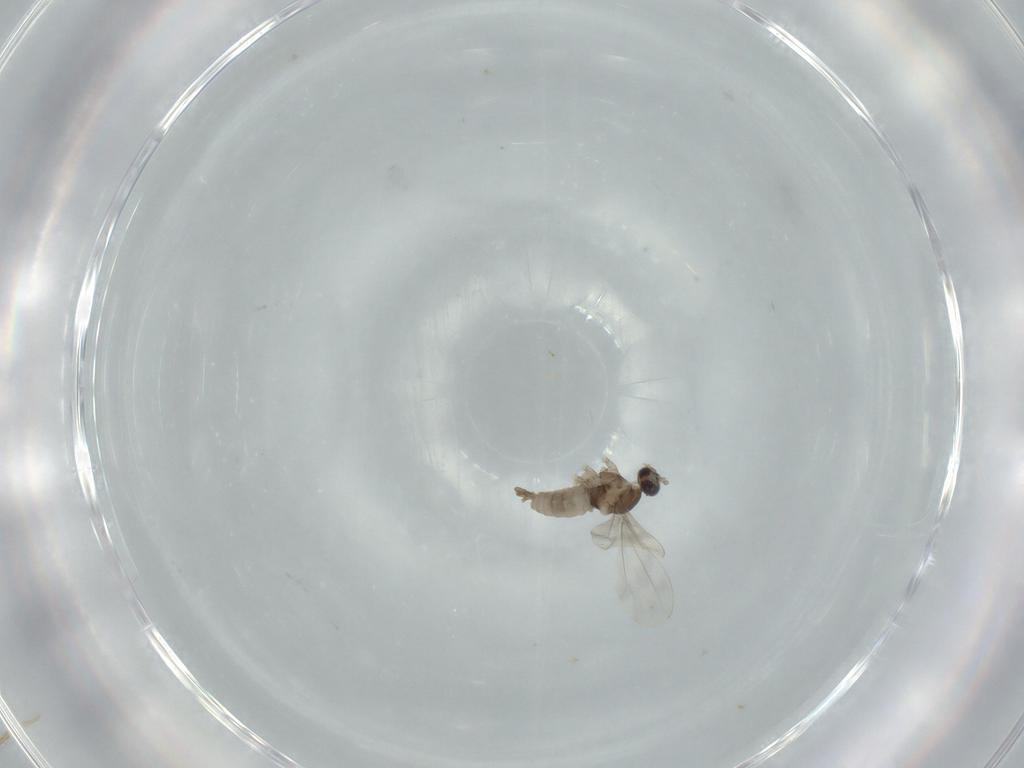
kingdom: Animalia
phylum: Arthropoda
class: Insecta
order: Diptera
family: Cecidomyiidae
